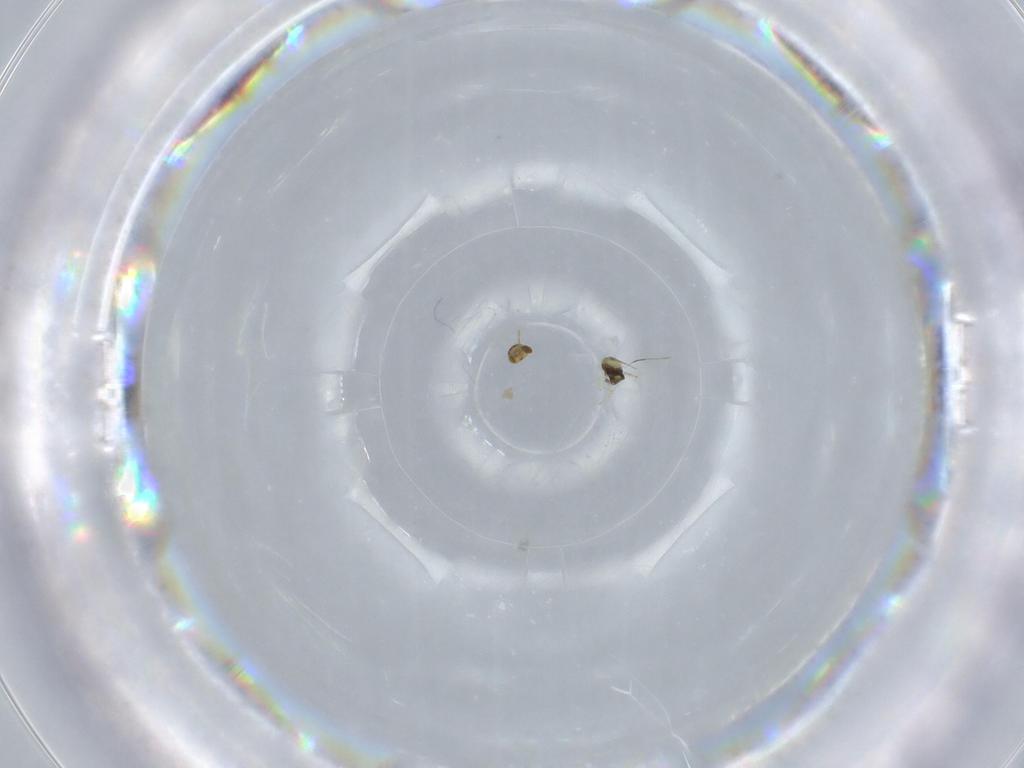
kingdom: Animalia
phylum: Arthropoda
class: Insecta
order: Hymenoptera
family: Aphelinidae
